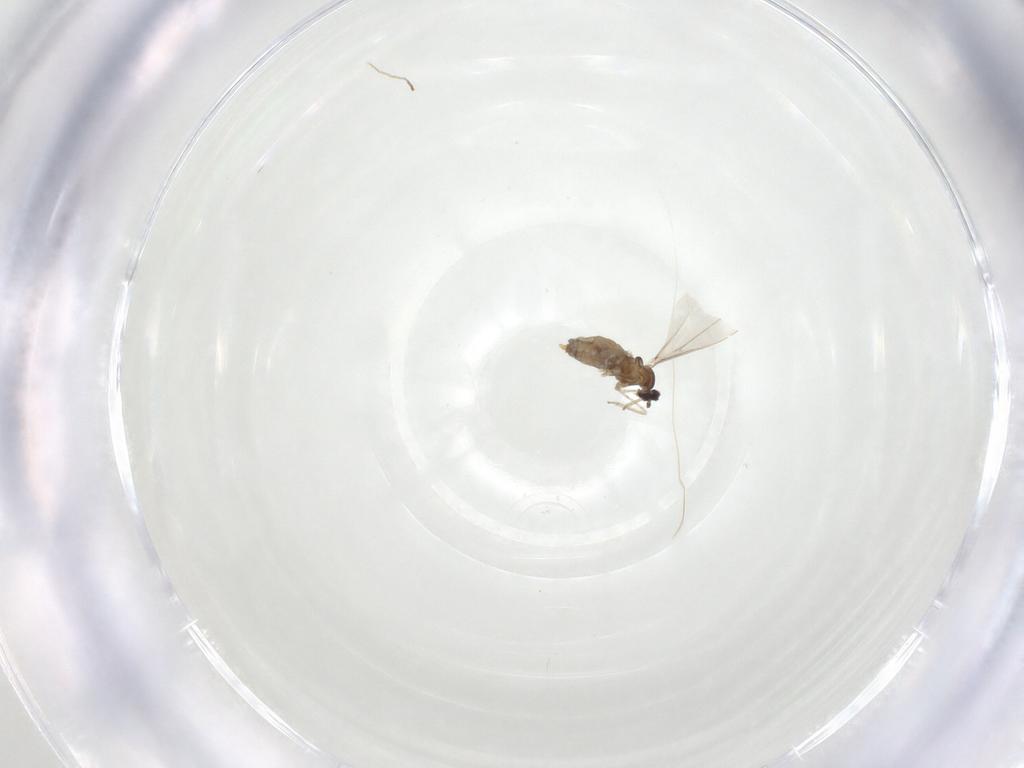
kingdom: Animalia
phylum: Arthropoda
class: Insecta
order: Diptera
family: Cecidomyiidae
